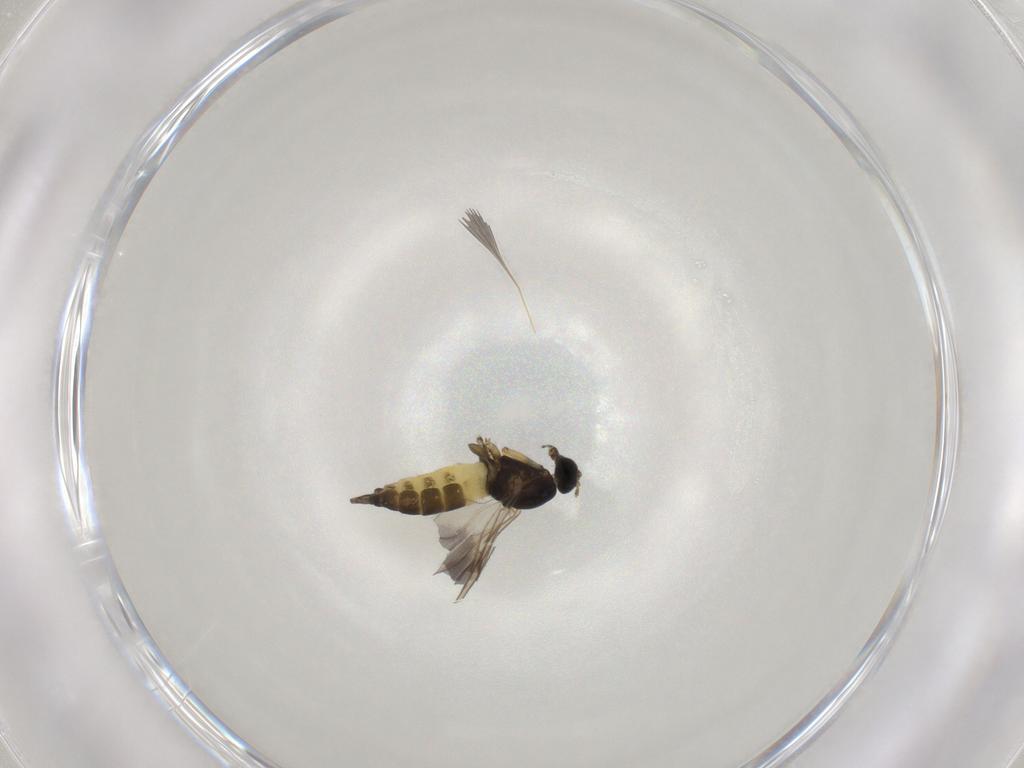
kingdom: Animalia
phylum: Arthropoda
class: Insecta
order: Diptera
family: Sciaridae
